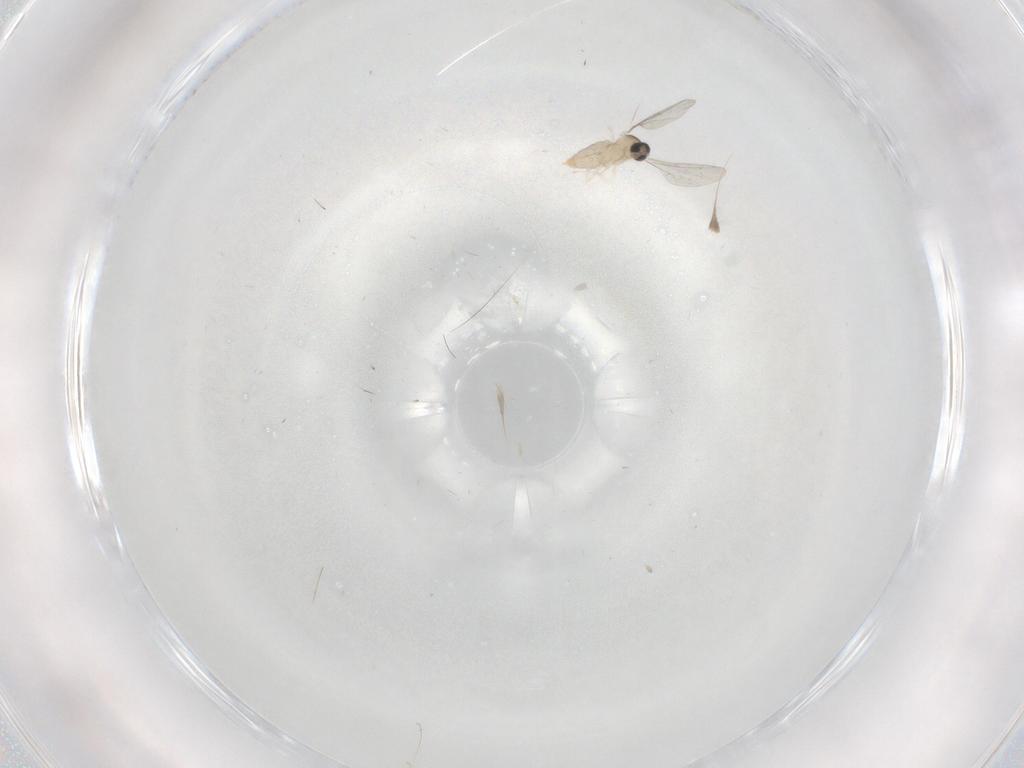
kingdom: Animalia
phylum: Arthropoda
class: Insecta
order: Diptera
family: Cecidomyiidae
